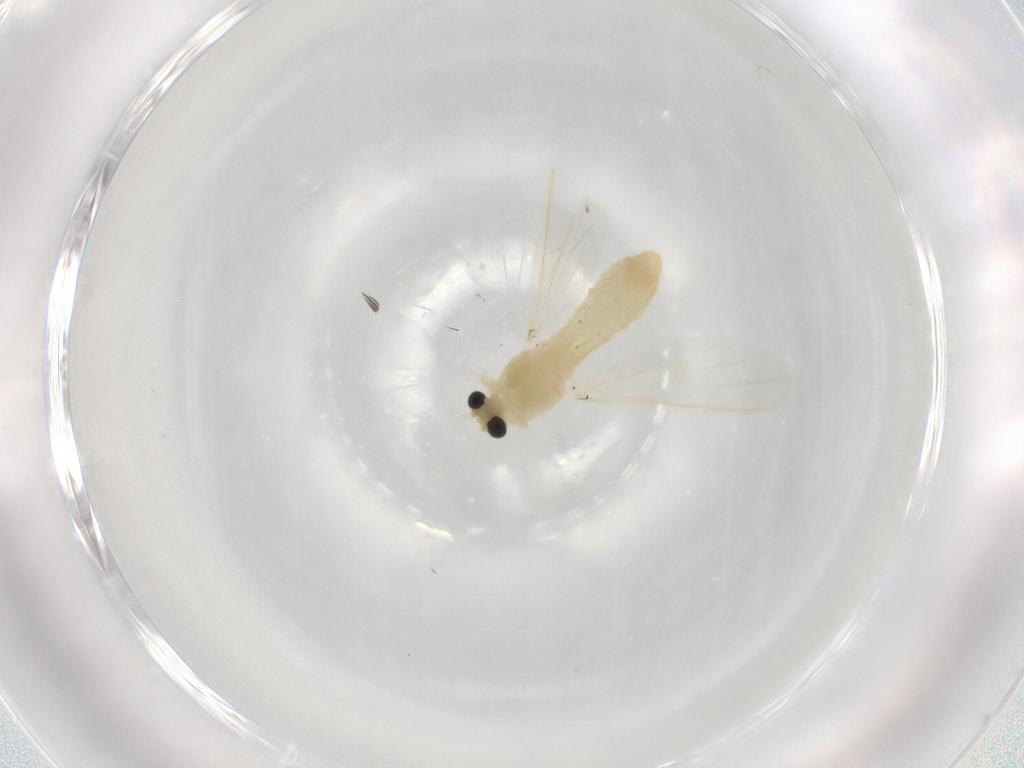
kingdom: Animalia
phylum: Arthropoda
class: Insecta
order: Diptera
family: Chironomidae
